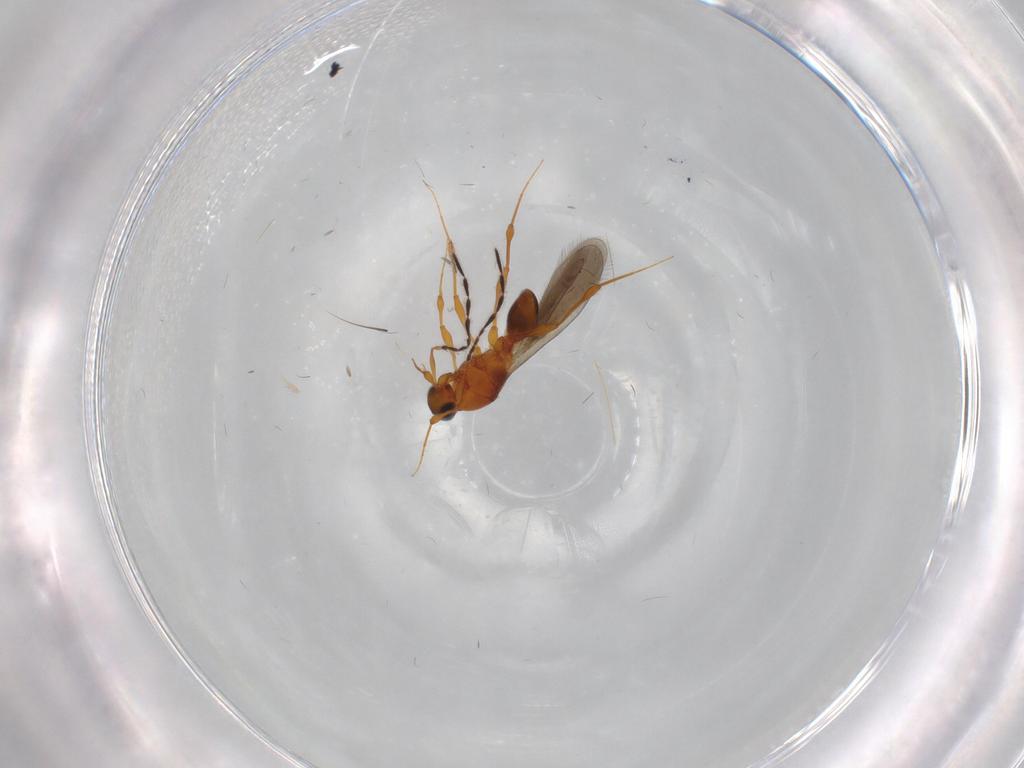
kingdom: Animalia
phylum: Arthropoda
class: Insecta
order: Hymenoptera
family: Platygastridae
